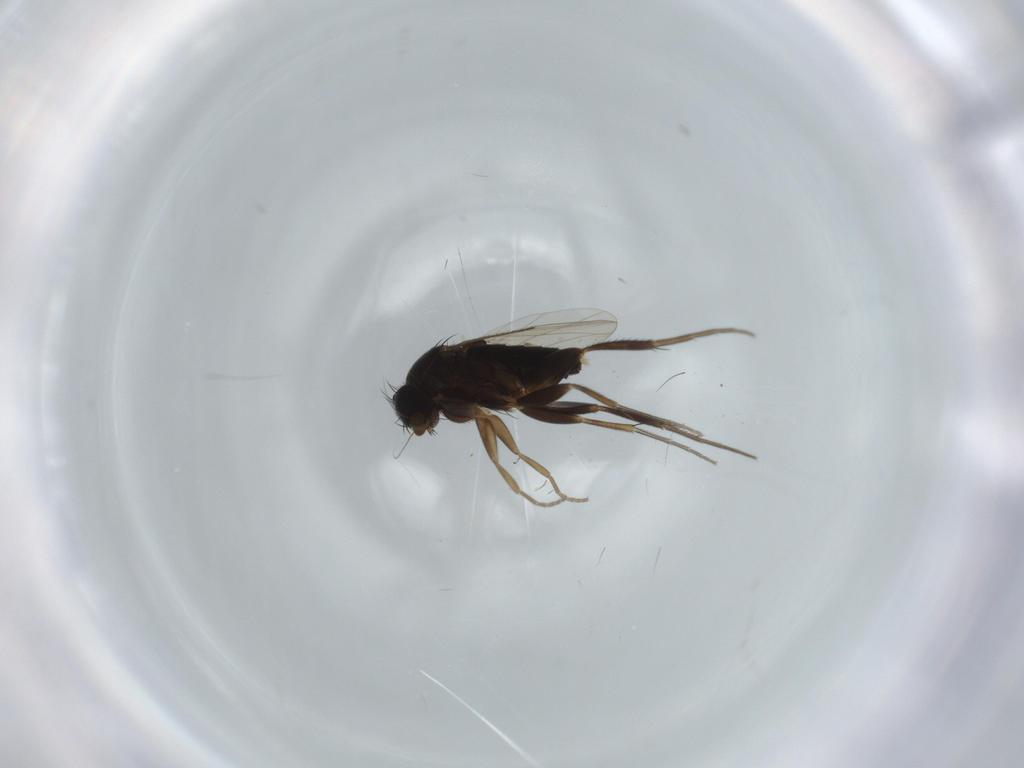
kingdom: Animalia
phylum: Arthropoda
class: Insecta
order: Diptera
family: Phoridae
